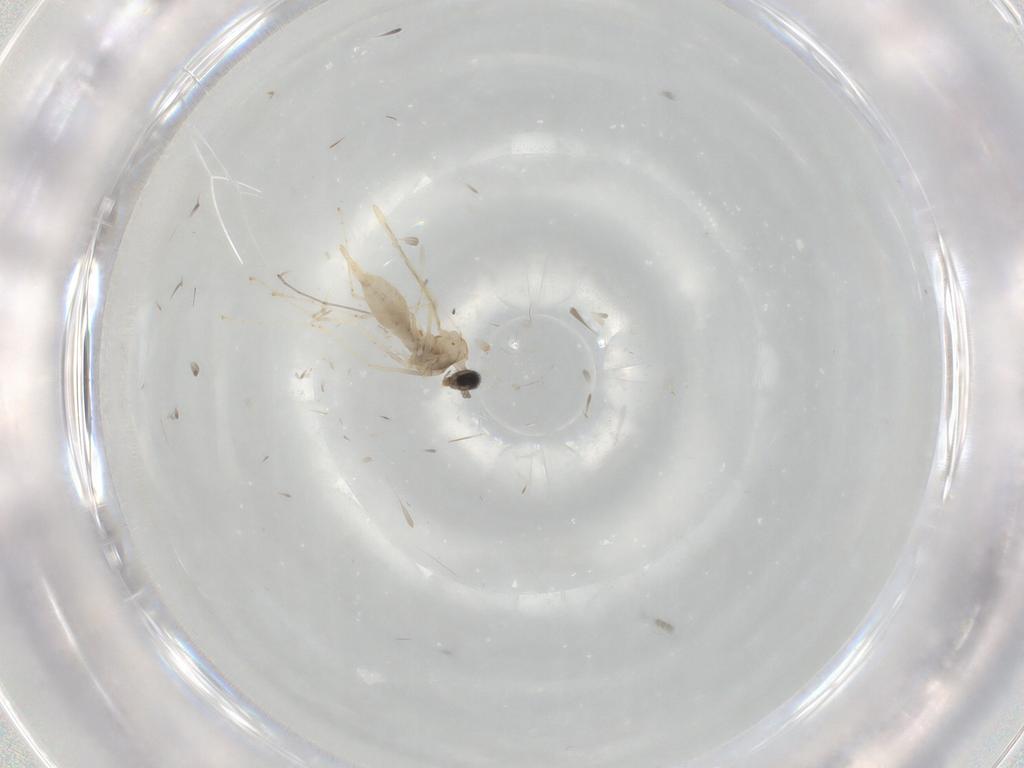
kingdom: Animalia
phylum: Arthropoda
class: Insecta
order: Diptera
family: Cecidomyiidae
